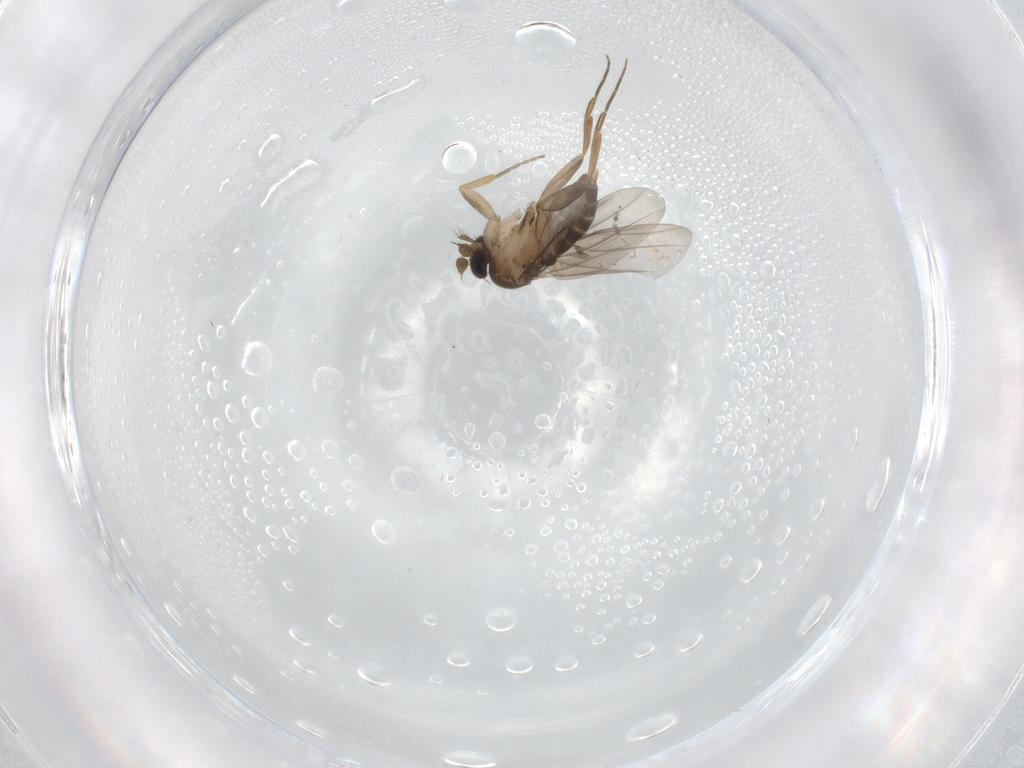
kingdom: Animalia
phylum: Arthropoda
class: Insecta
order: Diptera
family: Phoridae
